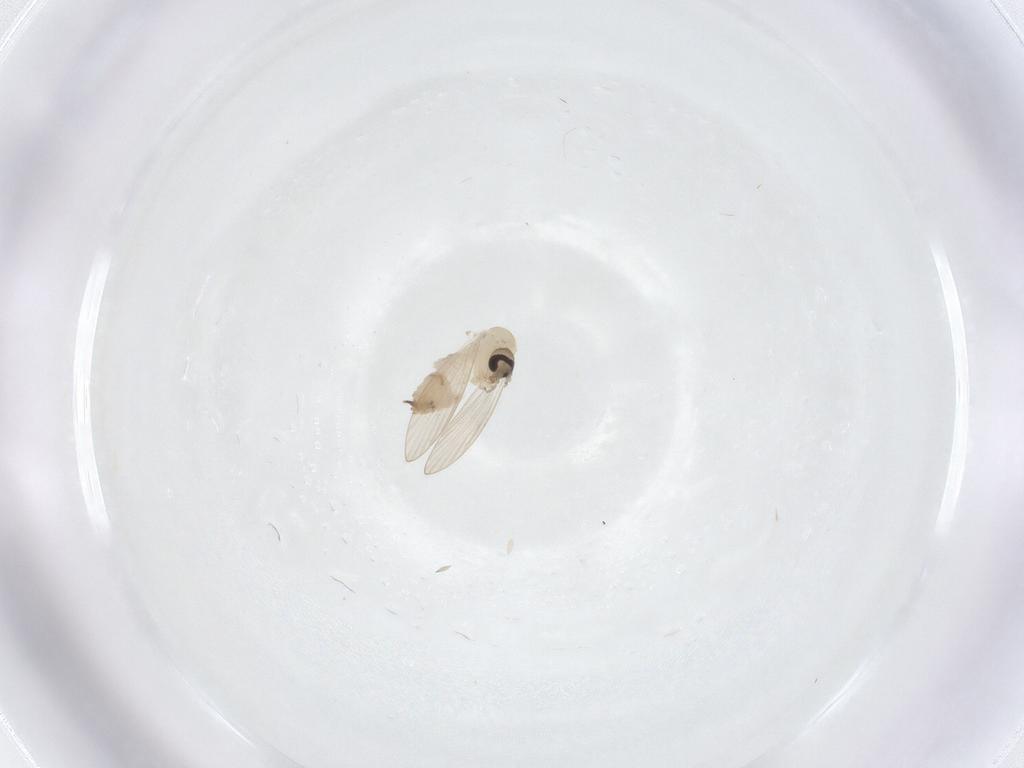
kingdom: Animalia
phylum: Arthropoda
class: Insecta
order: Diptera
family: Psychodidae
